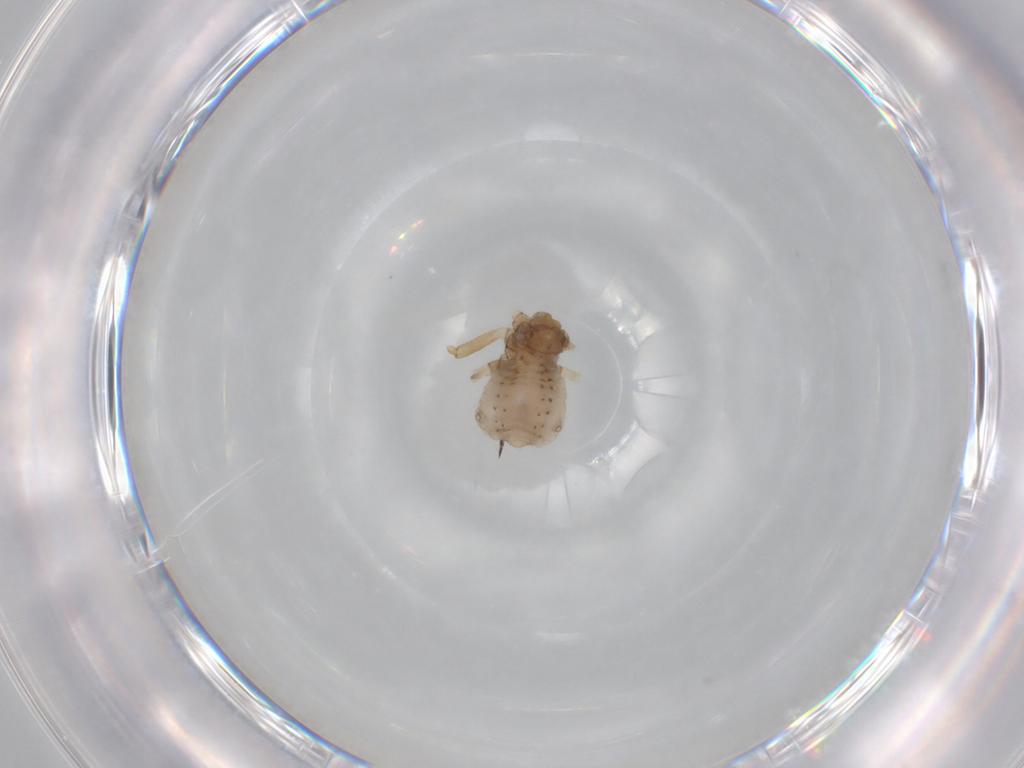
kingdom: Animalia
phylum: Arthropoda
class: Insecta
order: Hemiptera
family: Aphididae
